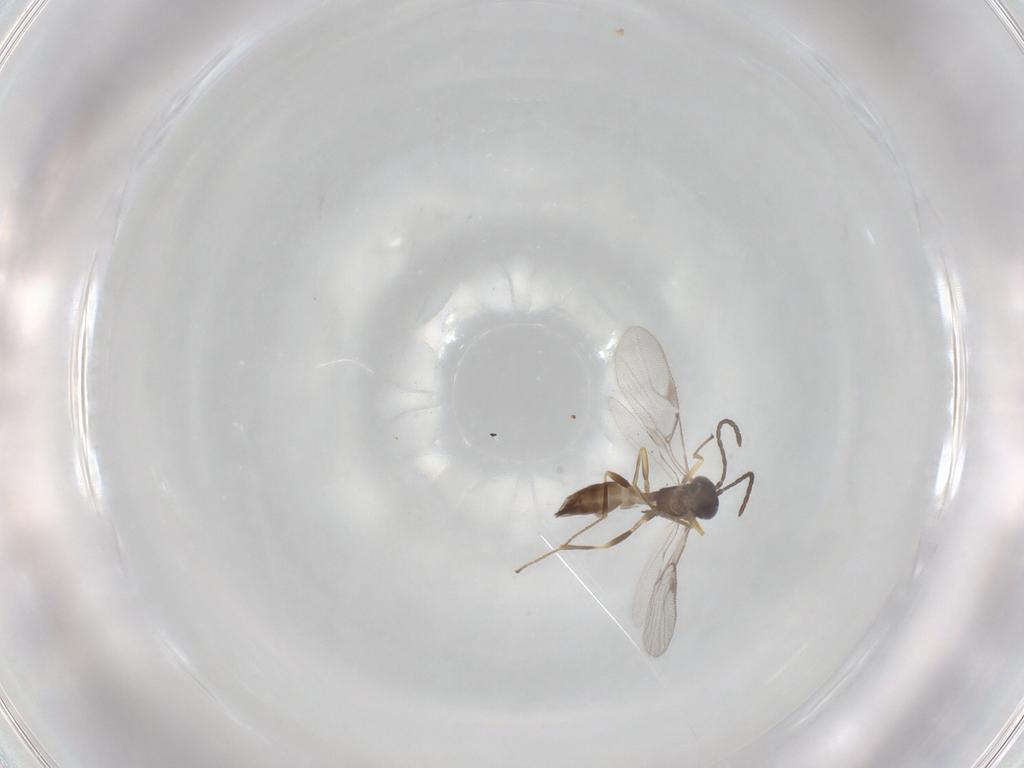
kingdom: Animalia
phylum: Arthropoda
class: Insecta
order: Hymenoptera
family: Braconidae
